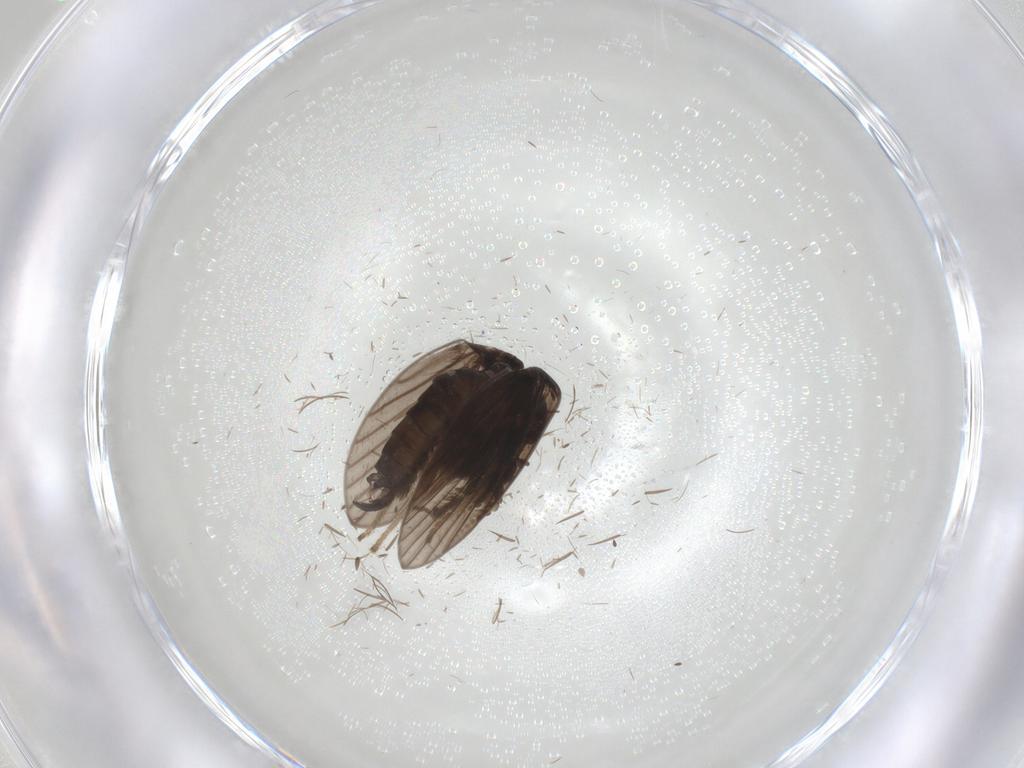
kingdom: Animalia
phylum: Arthropoda
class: Insecta
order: Diptera
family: Psychodidae
